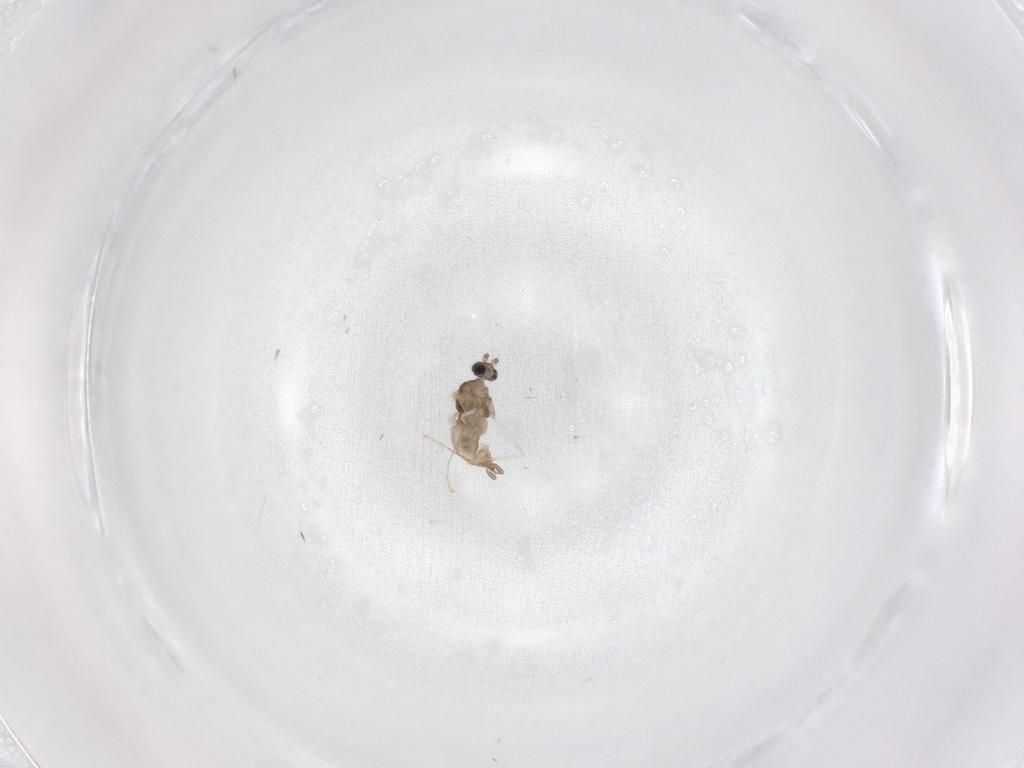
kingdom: Animalia
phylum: Arthropoda
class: Insecta
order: Diptera
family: Cecidomyiidae
